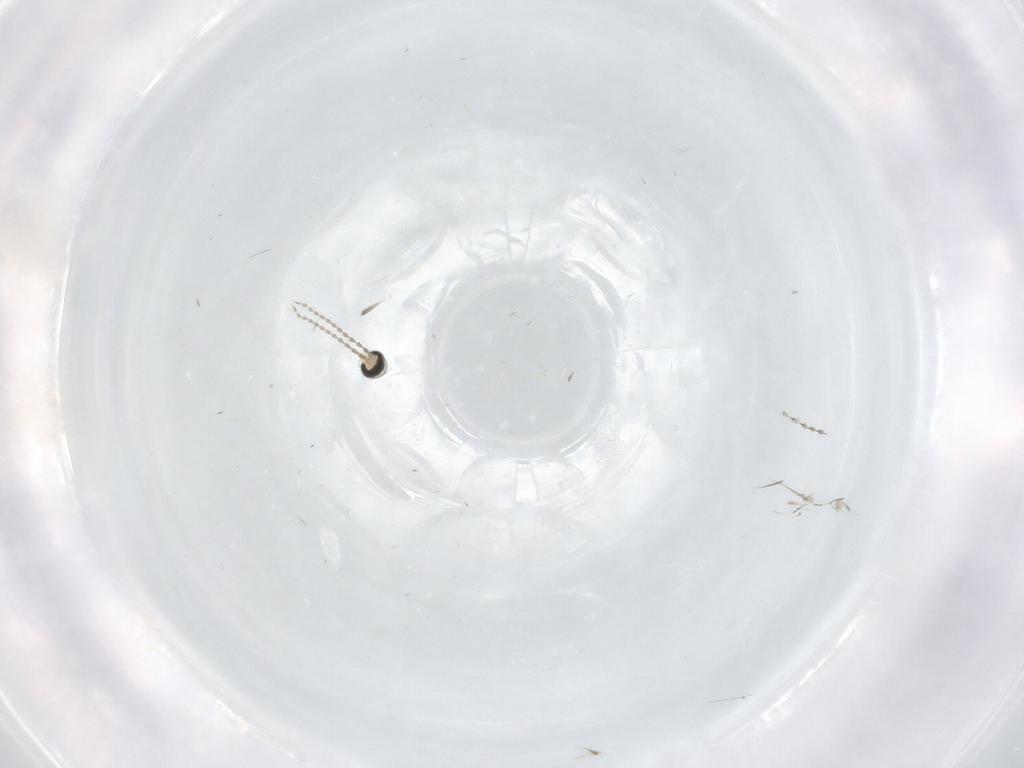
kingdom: Animalia
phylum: Arthropoda
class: Insecta
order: Diptera
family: Cecidomyiidae
